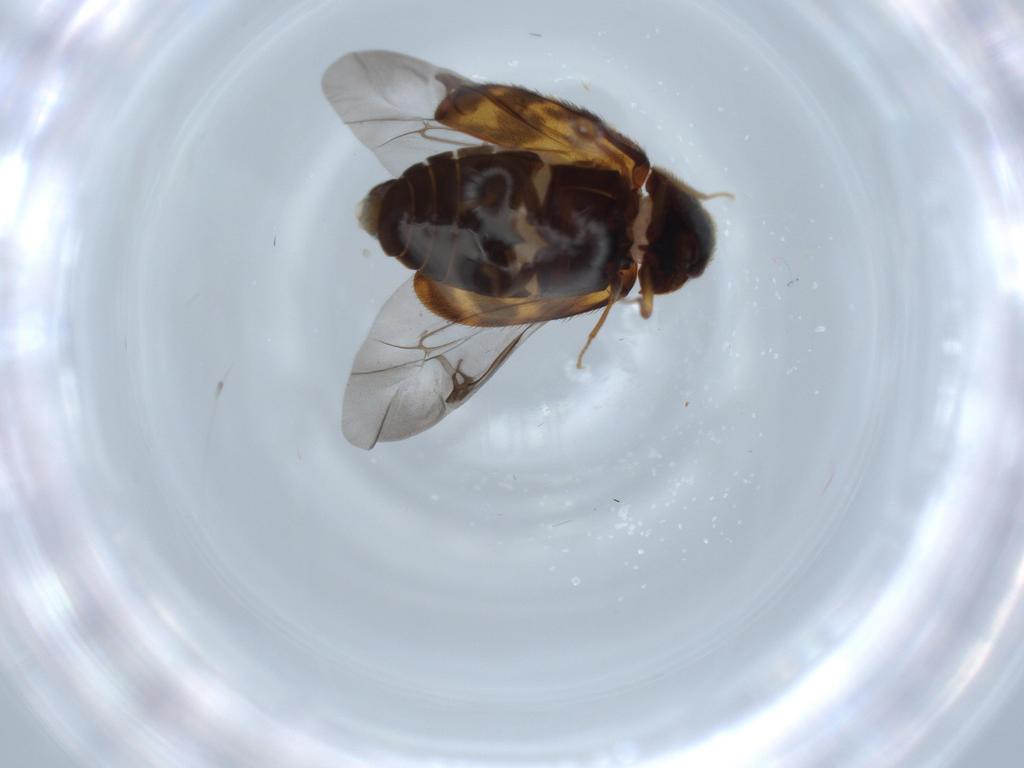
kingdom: Animalia
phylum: Arthropoda
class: Insecta
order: Coleoptera
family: Dermestidae
